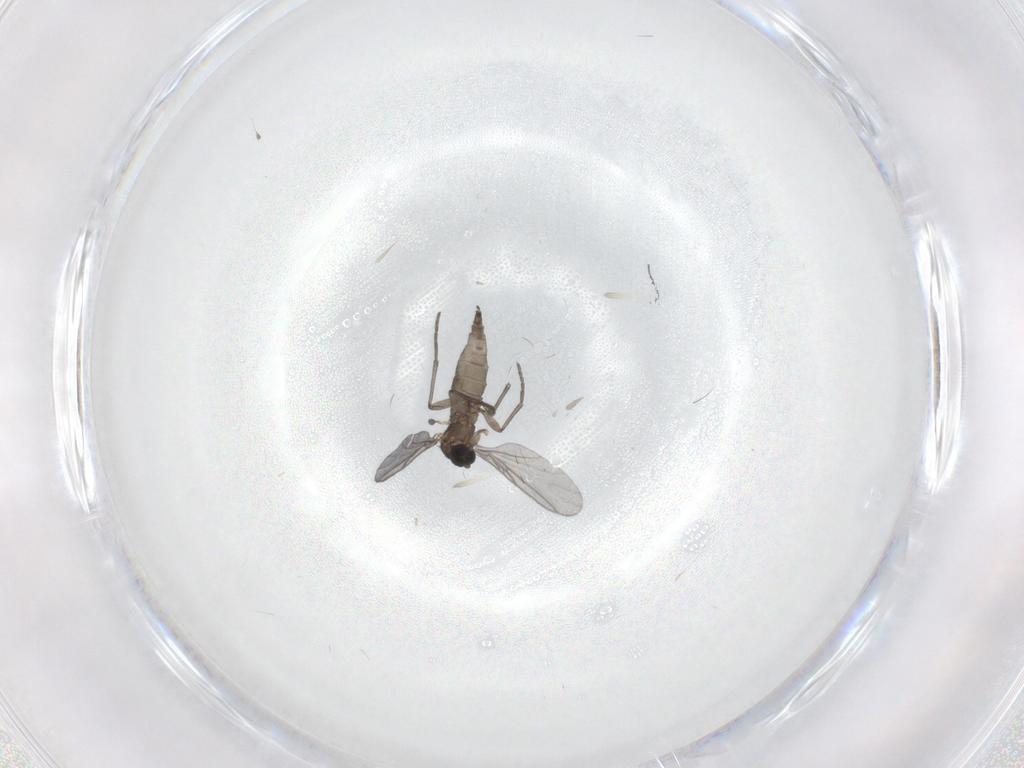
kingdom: Animalia
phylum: Arthropoda
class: Insecta
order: Diptera
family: Sciaridae
